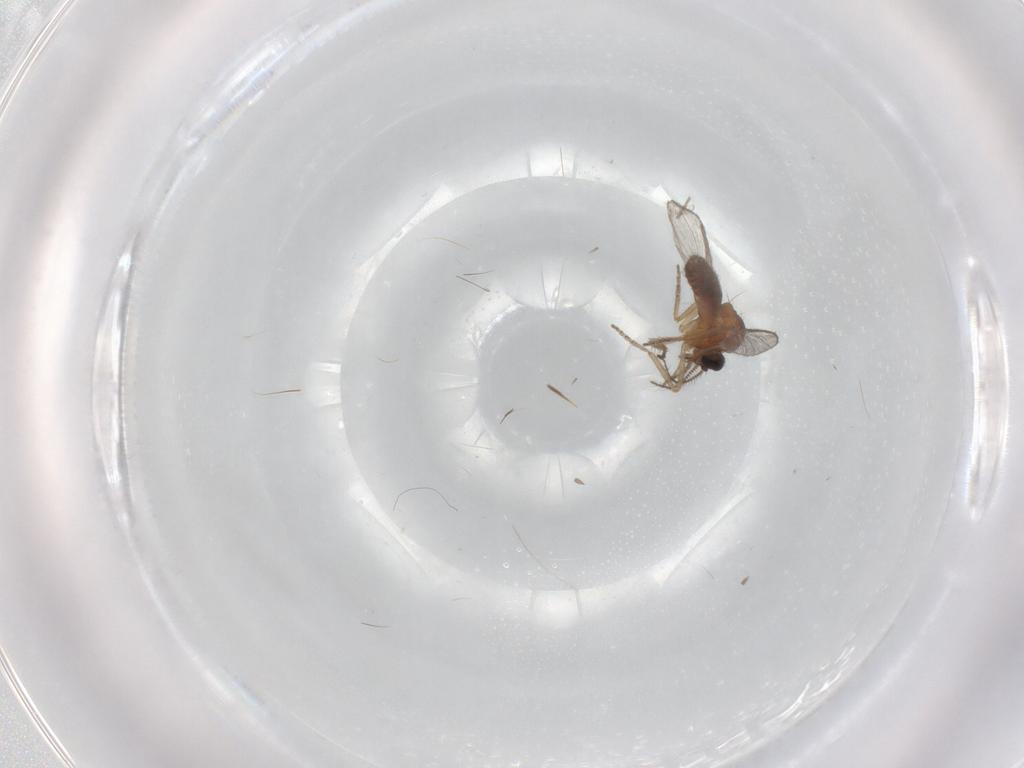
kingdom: Animalia
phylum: Arthropoda
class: Insecta
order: Diptera
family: Ceratopogonidae
